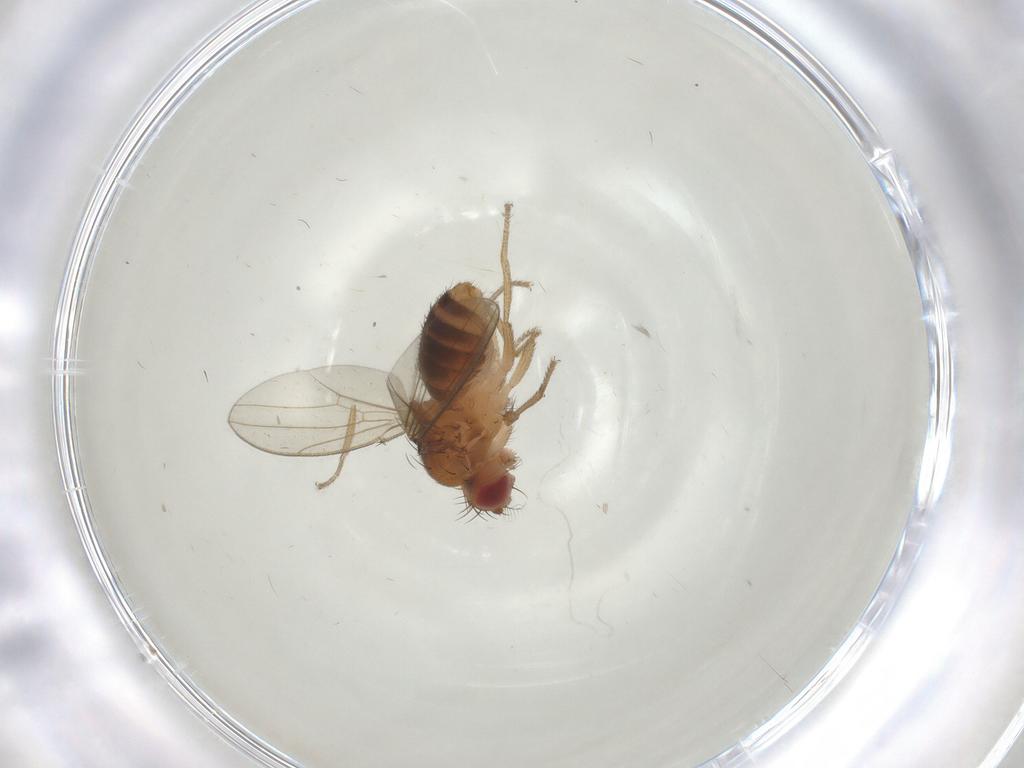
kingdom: Animalia
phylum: Arthropoda
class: Insecta
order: Diptera
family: Drosophilidae
